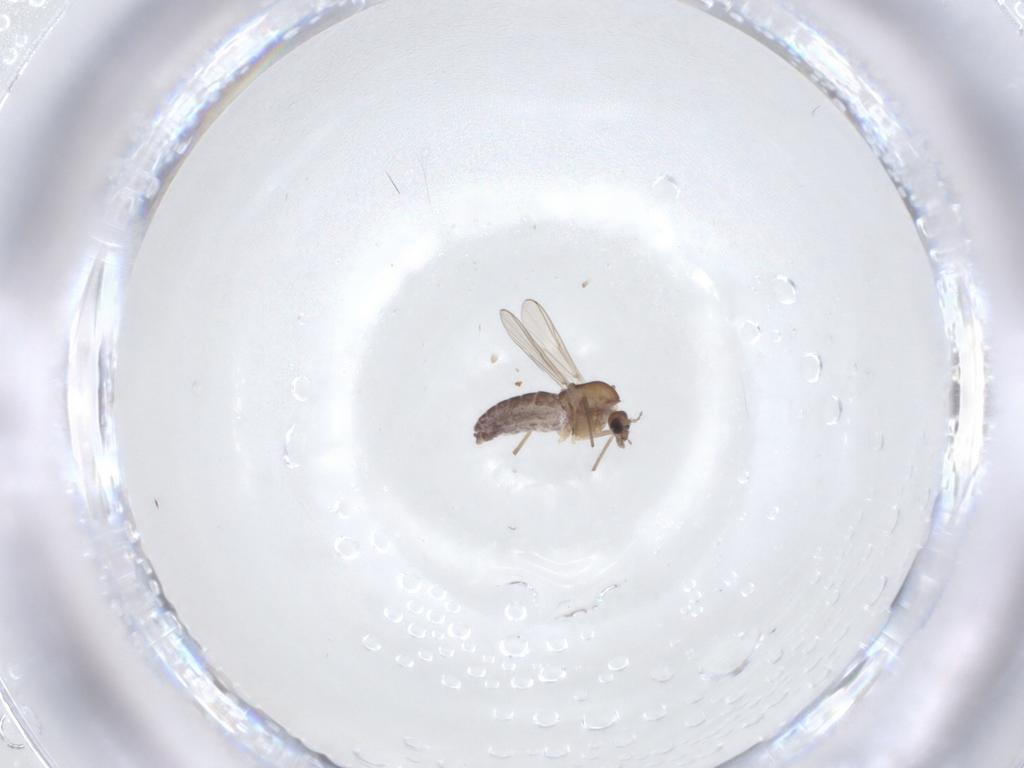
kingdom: Animalia
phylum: Arthropoda
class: Insecta
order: Diptera
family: Chironomidae
